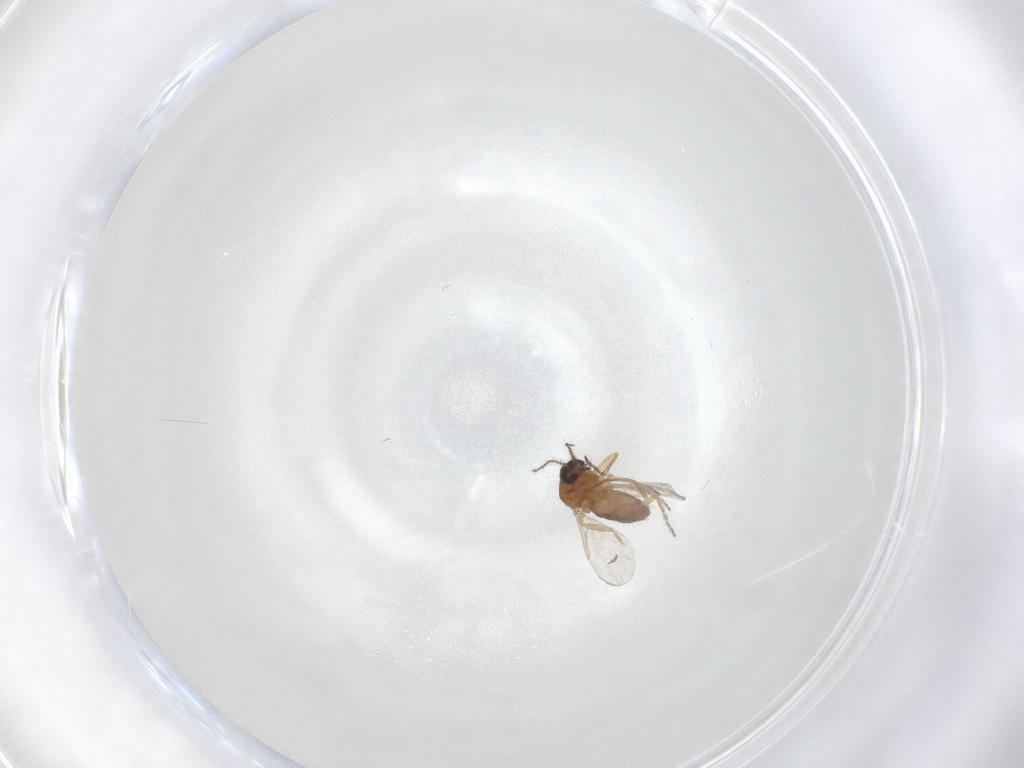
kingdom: Animalia
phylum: Arthropoda
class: Insecta
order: Diptera
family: Ceratopogonidae
